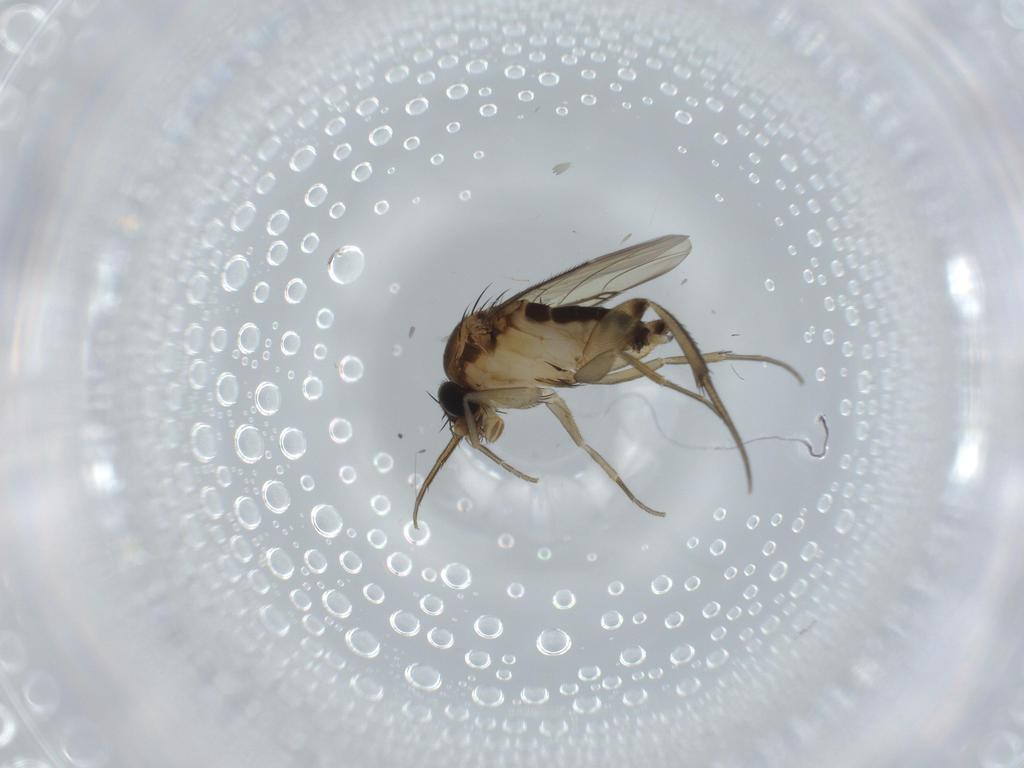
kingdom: Animalia
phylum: Arthropoda
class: Insecta
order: Diptera
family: Phoridae
